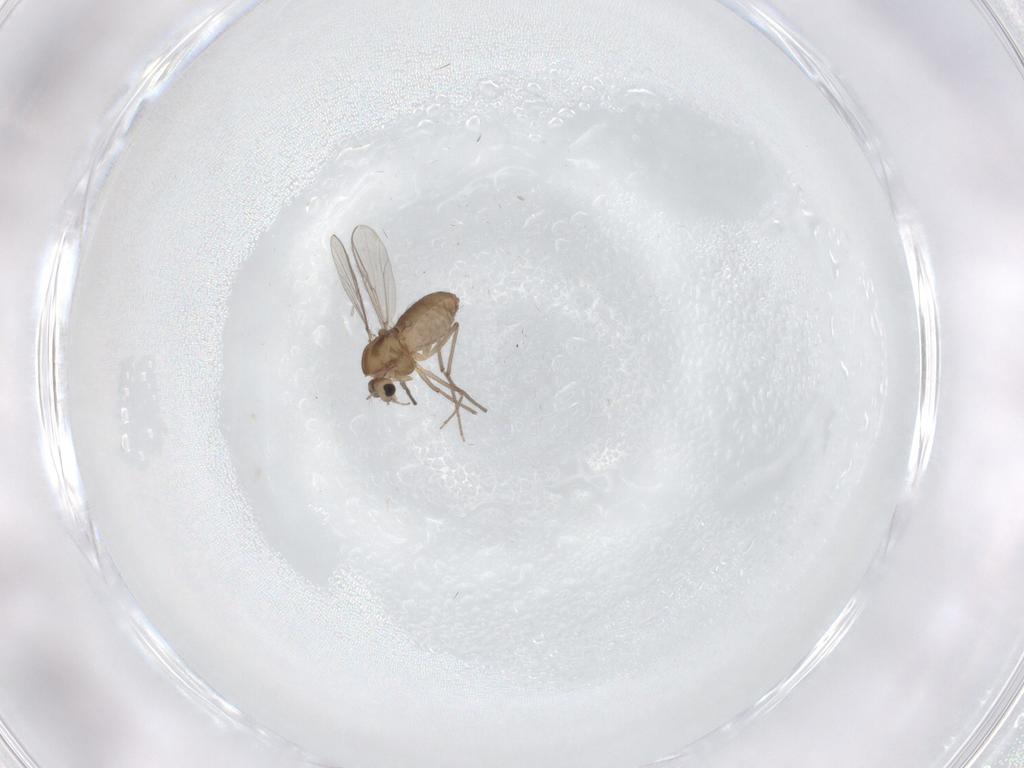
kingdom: Animalia
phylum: Arthropoda
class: Insecta
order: Diptera
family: Chironomidae
